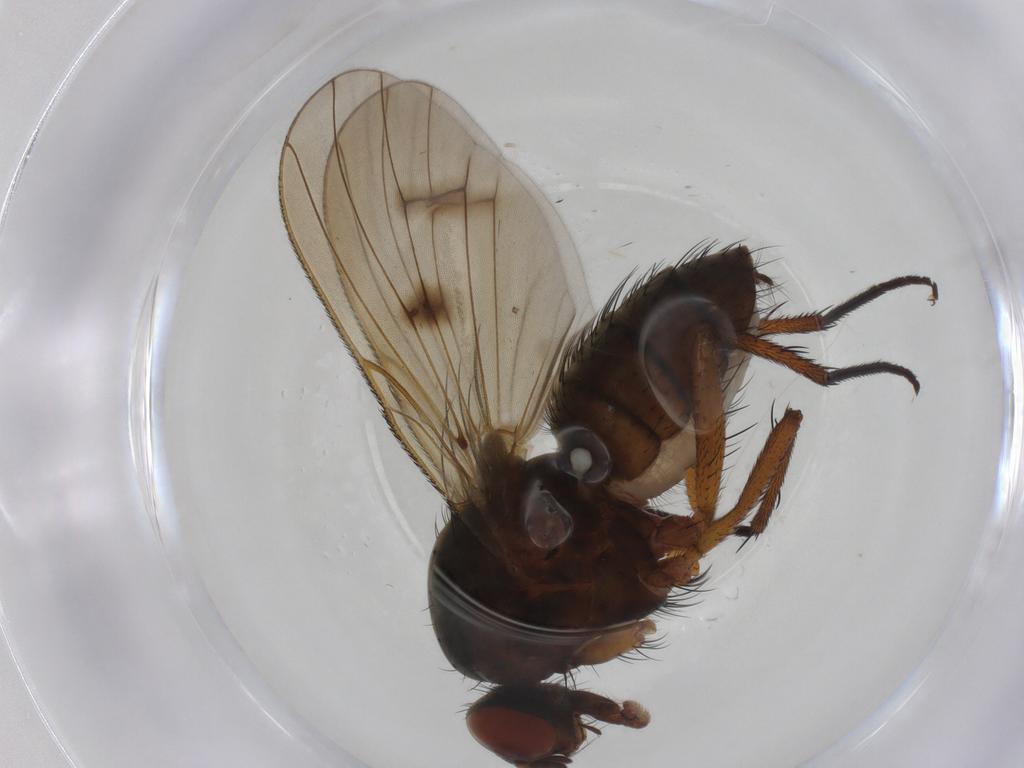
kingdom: Animalia
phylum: Arthropoda
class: Insecta
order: Diptera
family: Anthomyiidae
